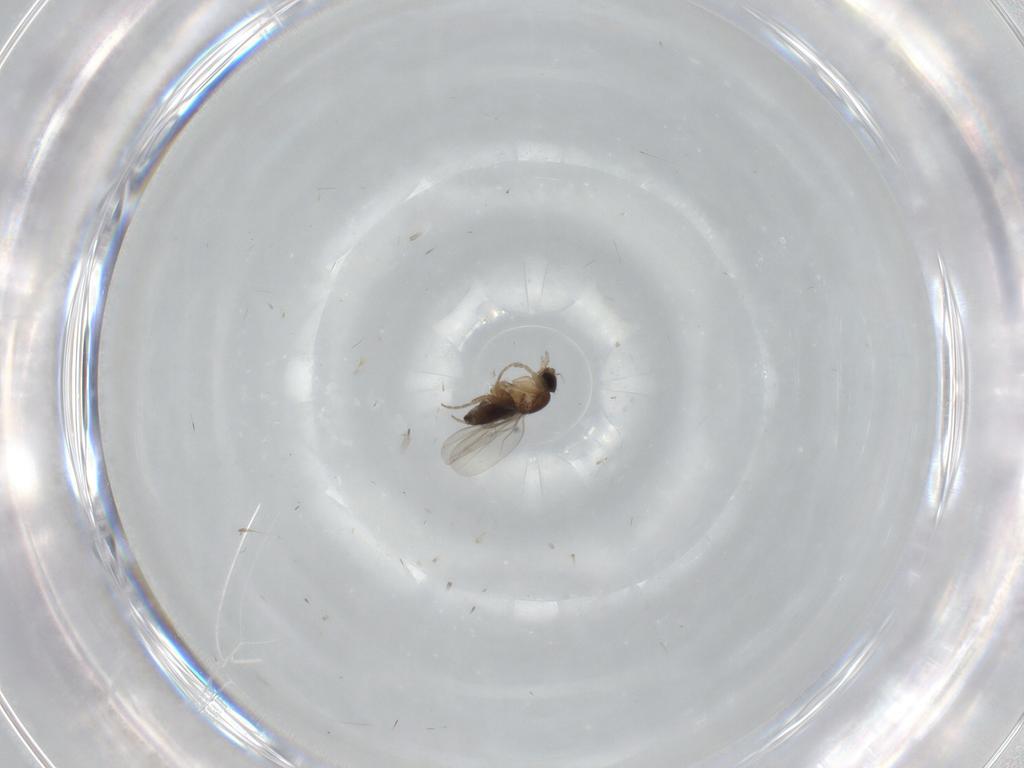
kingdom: Animalia
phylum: Arthropoda
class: Insecta
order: Diptera
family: Phoridae
